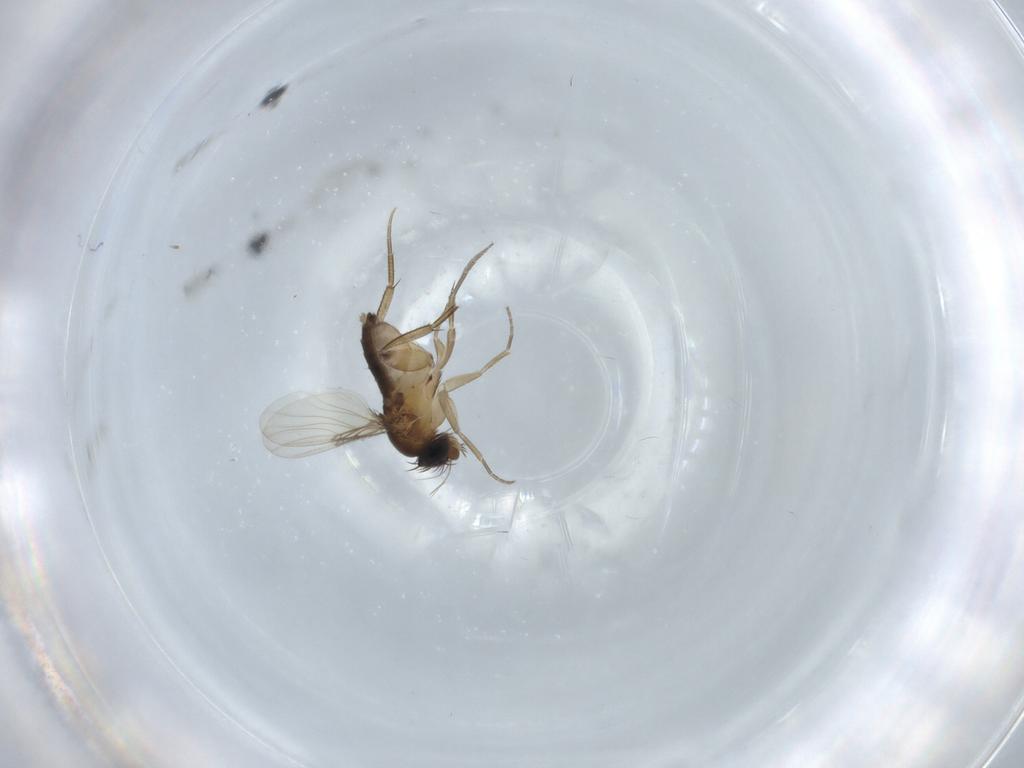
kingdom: Animalia
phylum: Arthropoda
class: Insecta
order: Diptera
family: Phoridae
